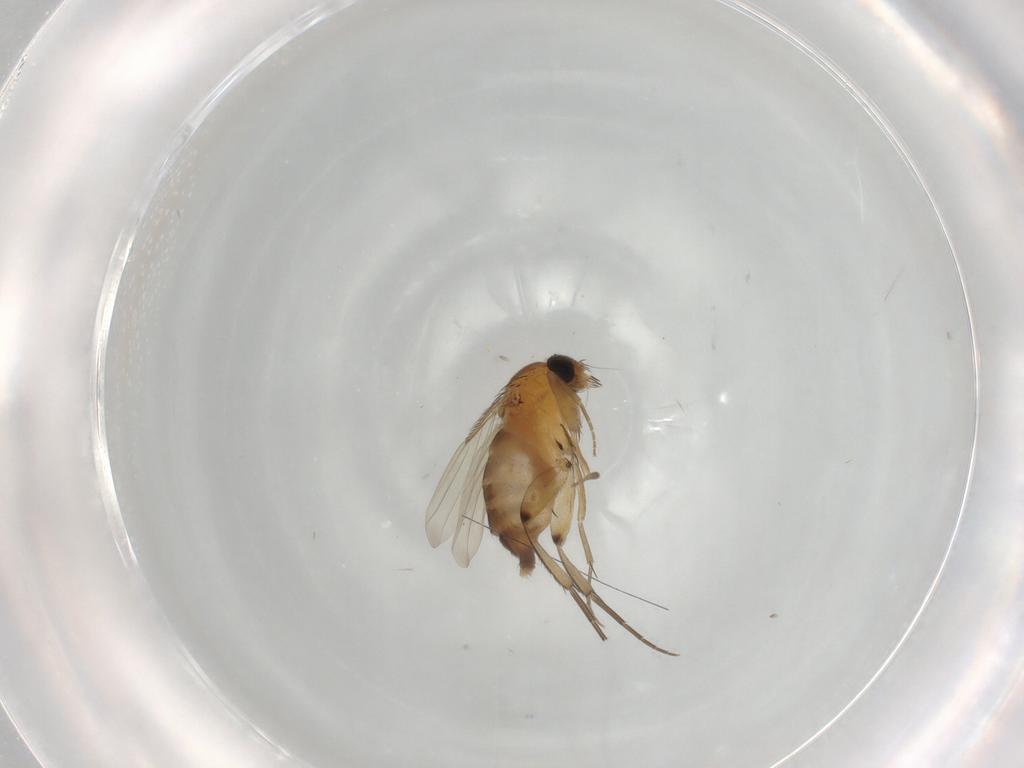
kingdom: Animalia
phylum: Arthropoda
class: Insecta
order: Diptera
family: Phoridae
